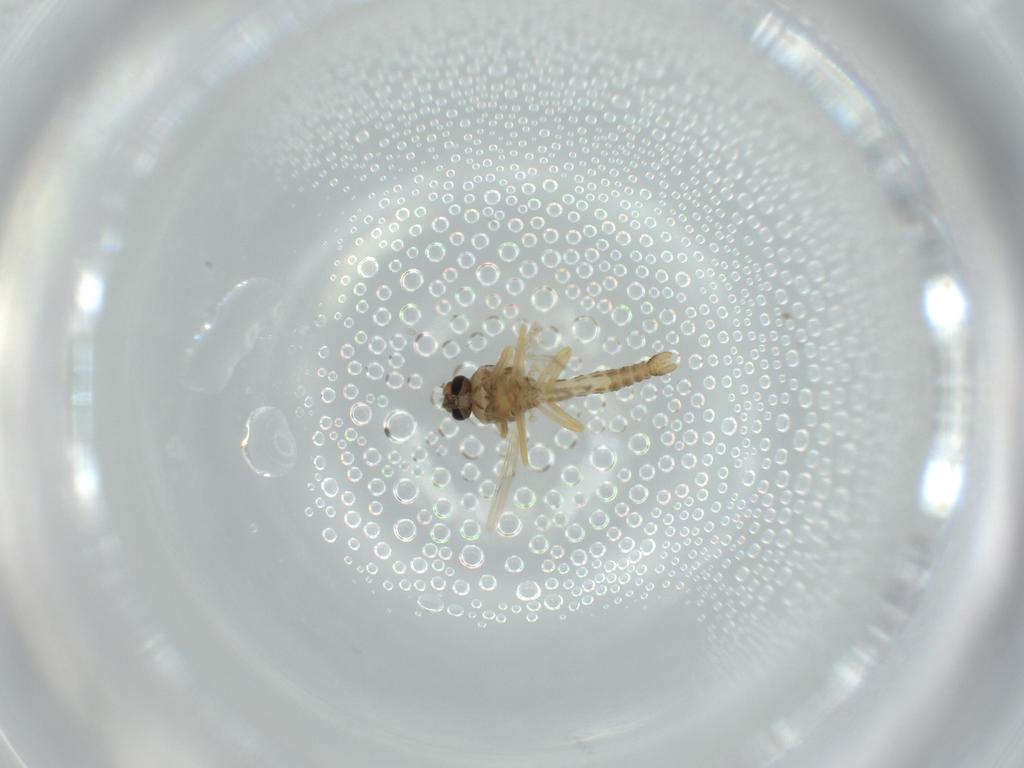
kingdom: Animalia
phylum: Arthropoda
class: Insecta
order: Diptera
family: Ceratopogonidae
